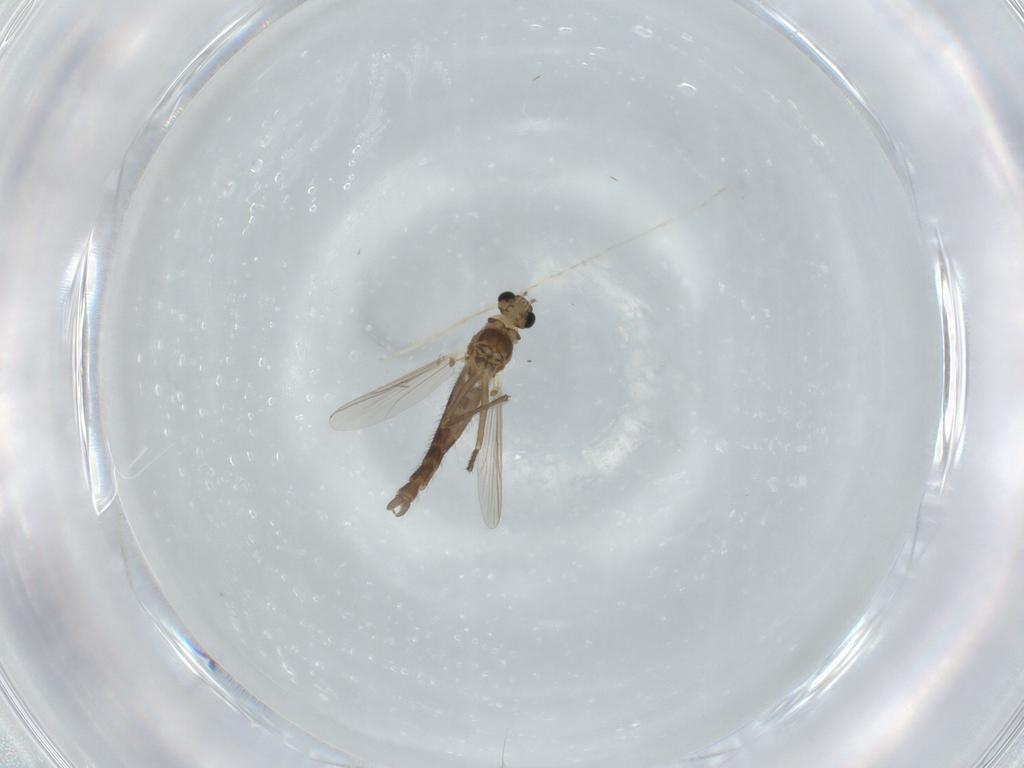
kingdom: Animalia
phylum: Arthropoda
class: Insecta
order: Diptera
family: Chironomidae
